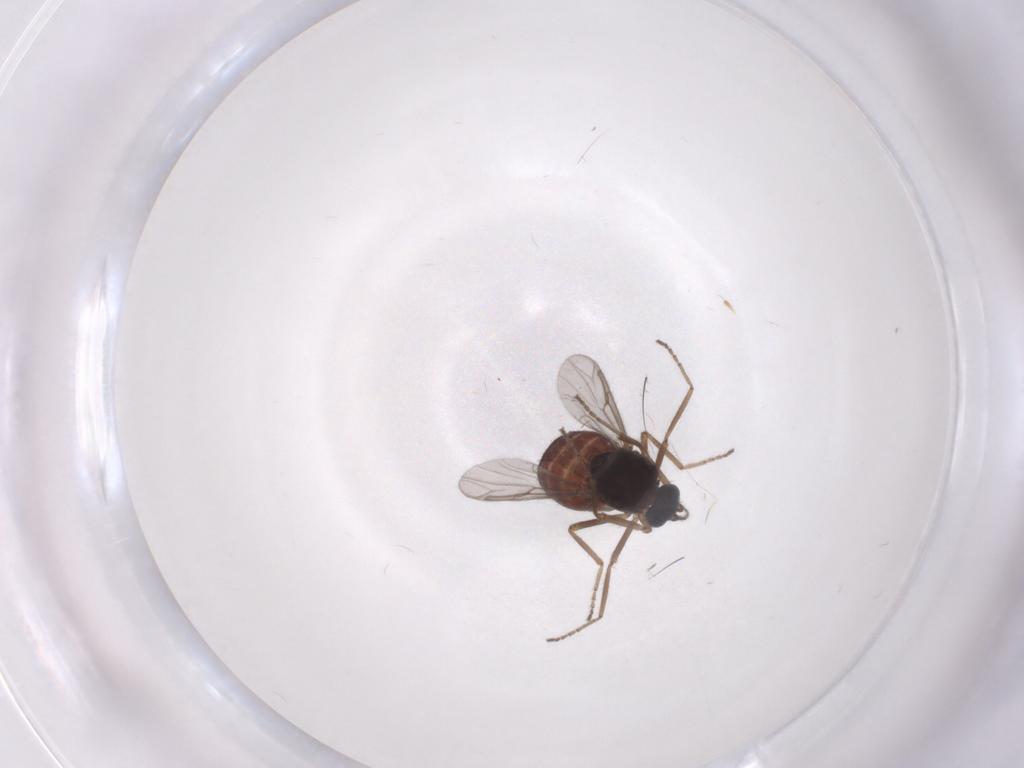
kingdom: Animalia
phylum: Arthropoda
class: Insecta
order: Diptera
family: Ceratopogonidae
